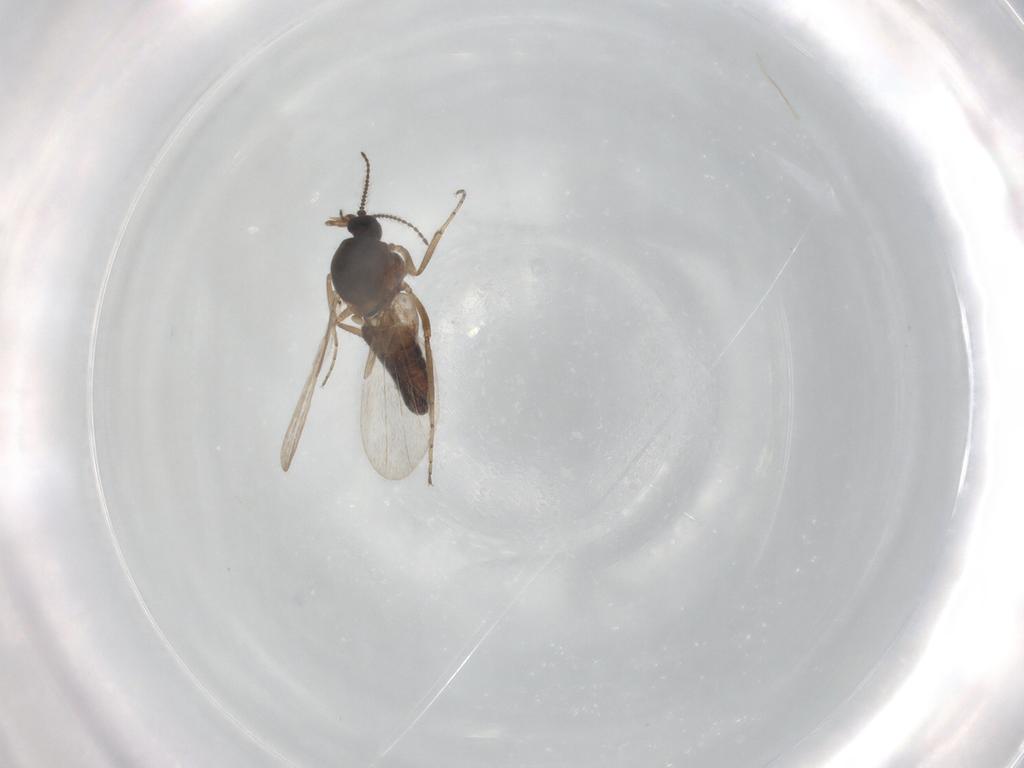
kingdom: Animalia
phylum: Arthropoda
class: Insecta
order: Diptera
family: Ceratopogonidae
